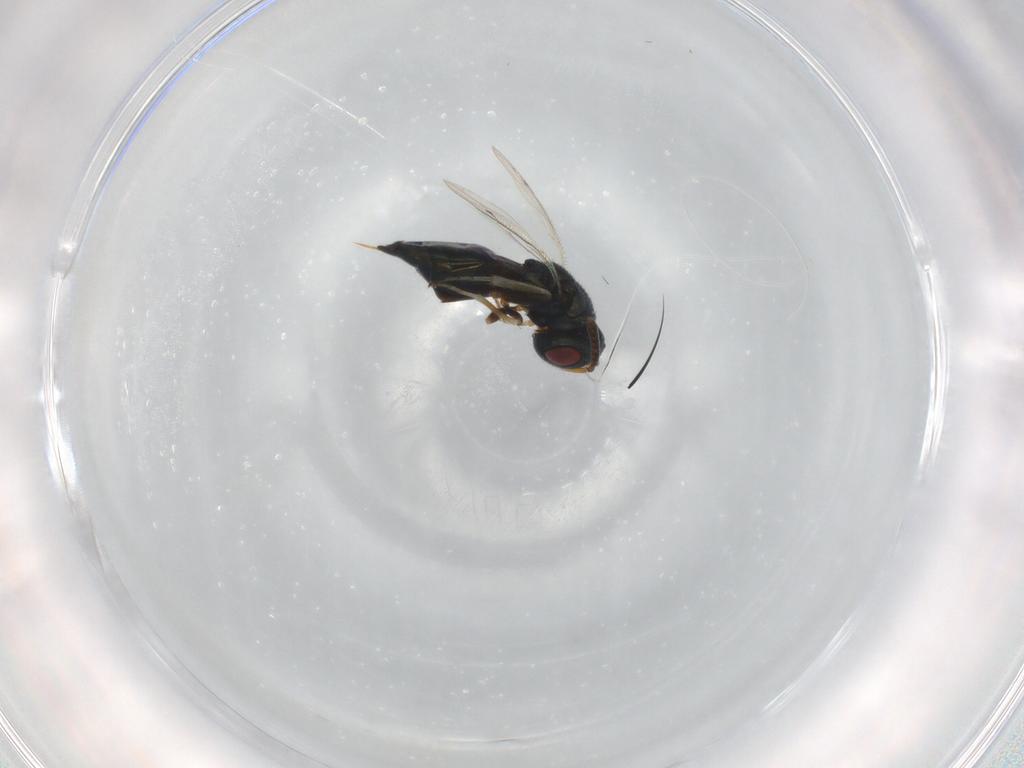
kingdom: Animalia
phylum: Arthropoda
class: Insecta
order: Hymenoptera
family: Pteromalidae
